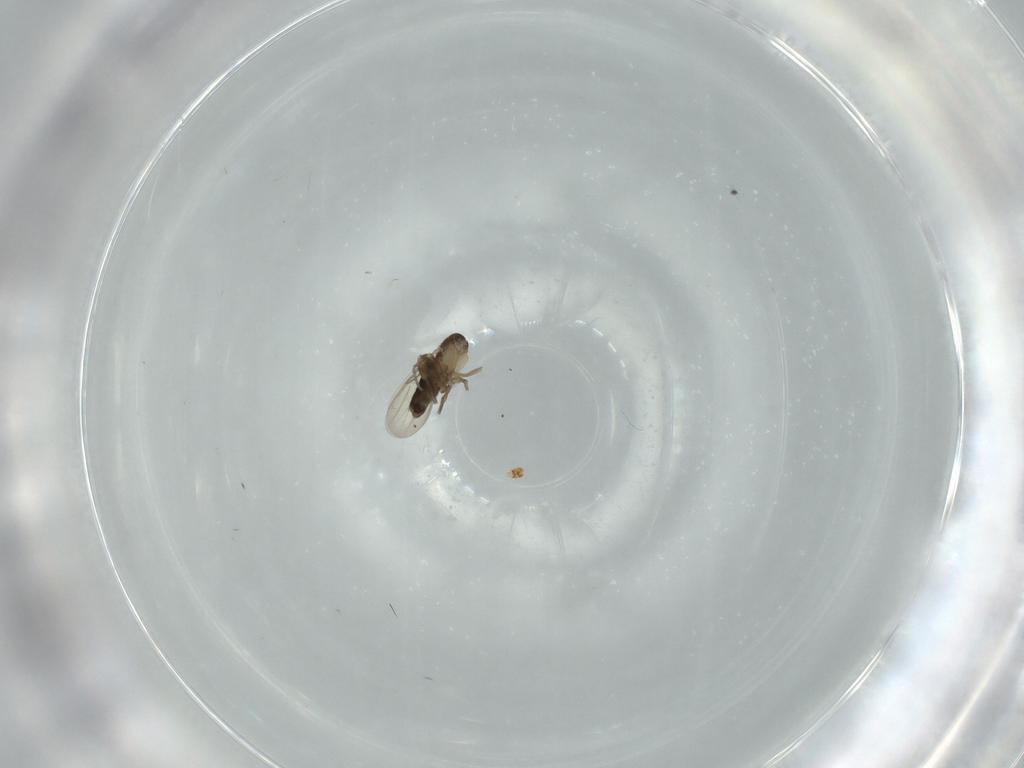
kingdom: Animalia
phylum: Arthropoda
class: Insecta
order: Diptera
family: Phoridae
